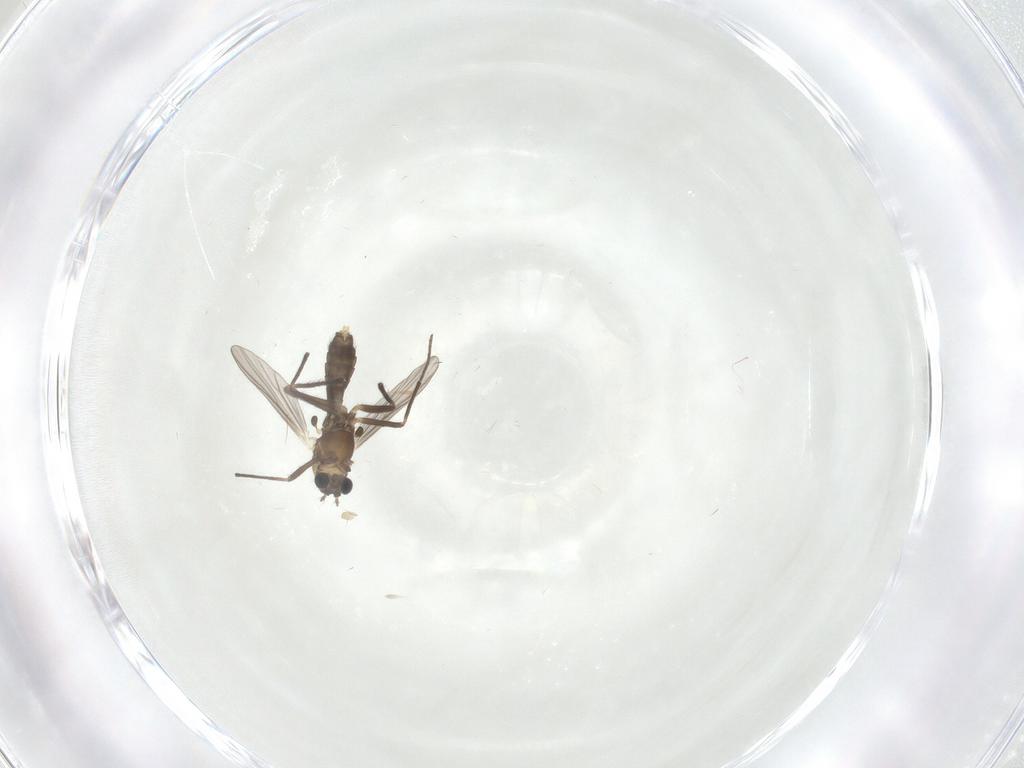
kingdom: Animalia
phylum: Arthropoda
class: Insecta
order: Diptera
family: Chironomidae
